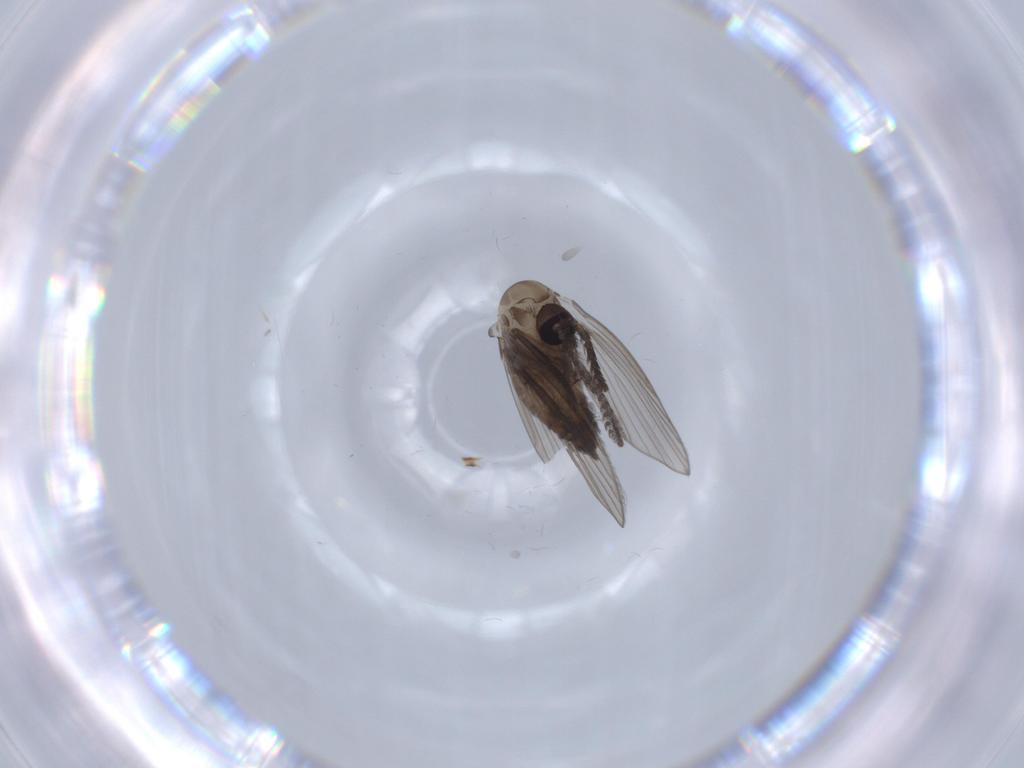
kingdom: Animalia
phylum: Arthropoda
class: Insecta
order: Diptera
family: Psychodidae
